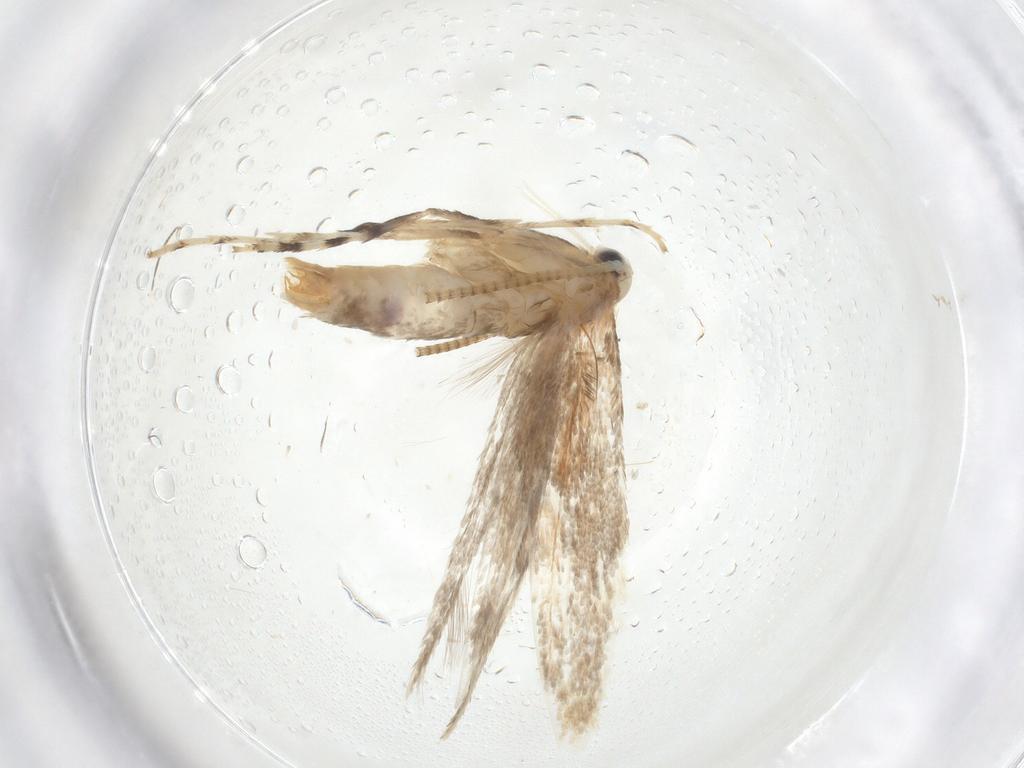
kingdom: Animalia
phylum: Arthropoda
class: Insecta
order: Lepidoptera
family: Gracillariidae
